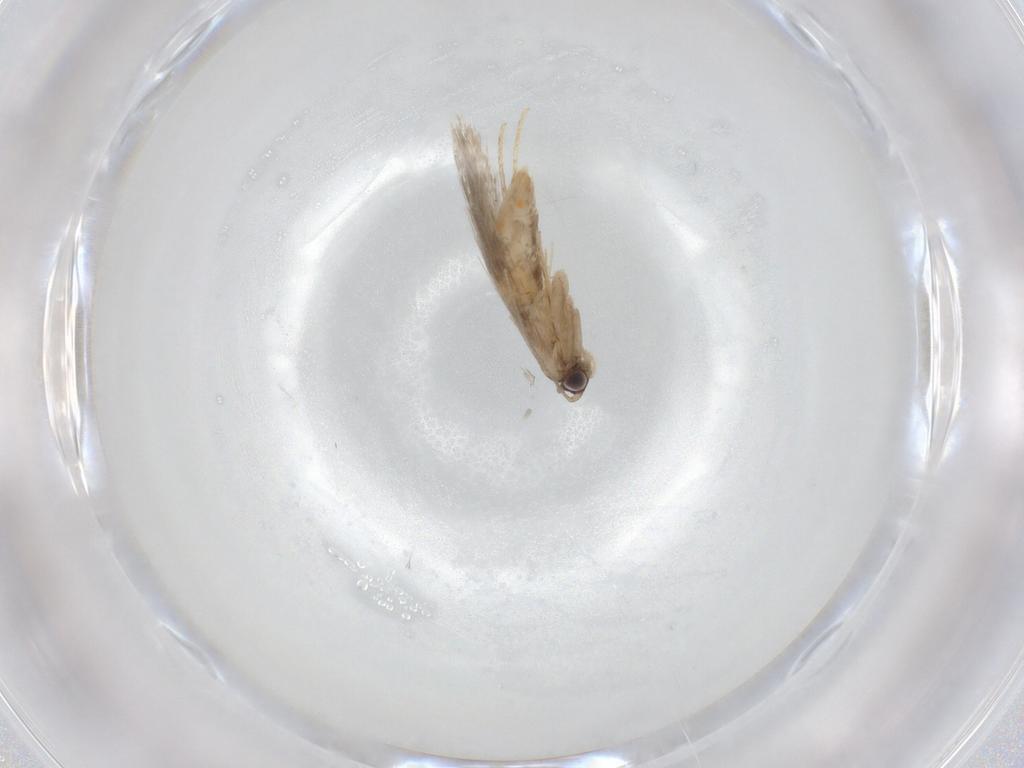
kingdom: Animalia
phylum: Arthropoda
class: Insecta
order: Lepidoptera
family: Tineidae
